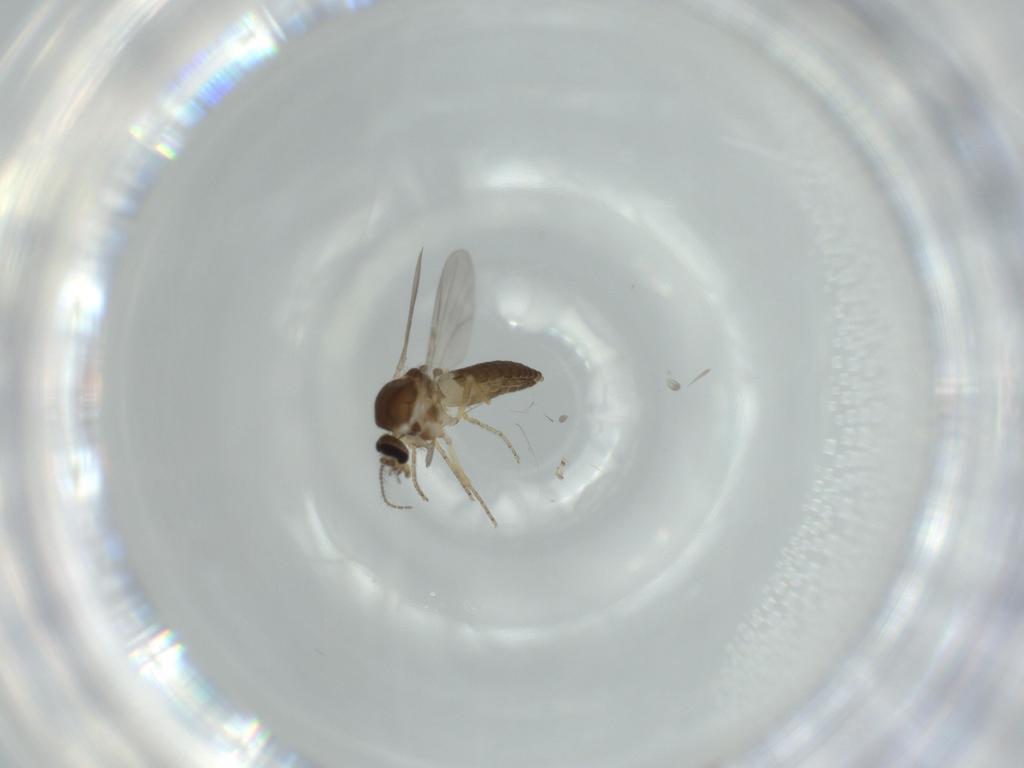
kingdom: Animalia
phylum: Arthropoda
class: Insecta
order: Diptera
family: Ceratopogonidae
